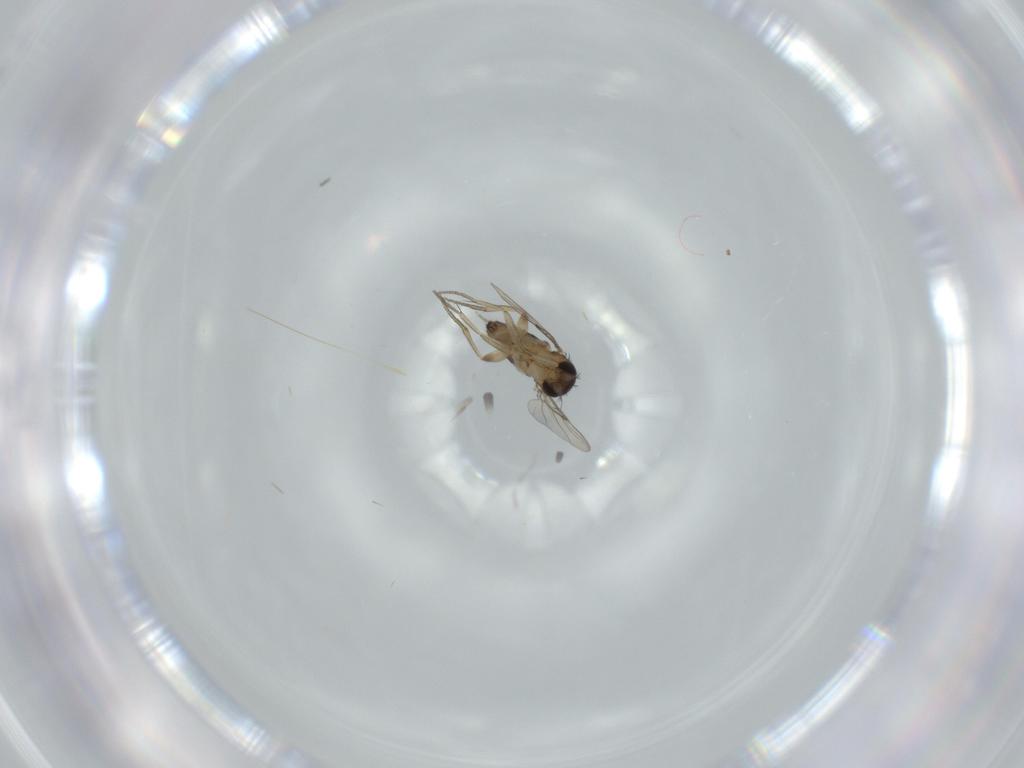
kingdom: Animalia
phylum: Arthropoda
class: Insecta
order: Diptera
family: Phoridae
